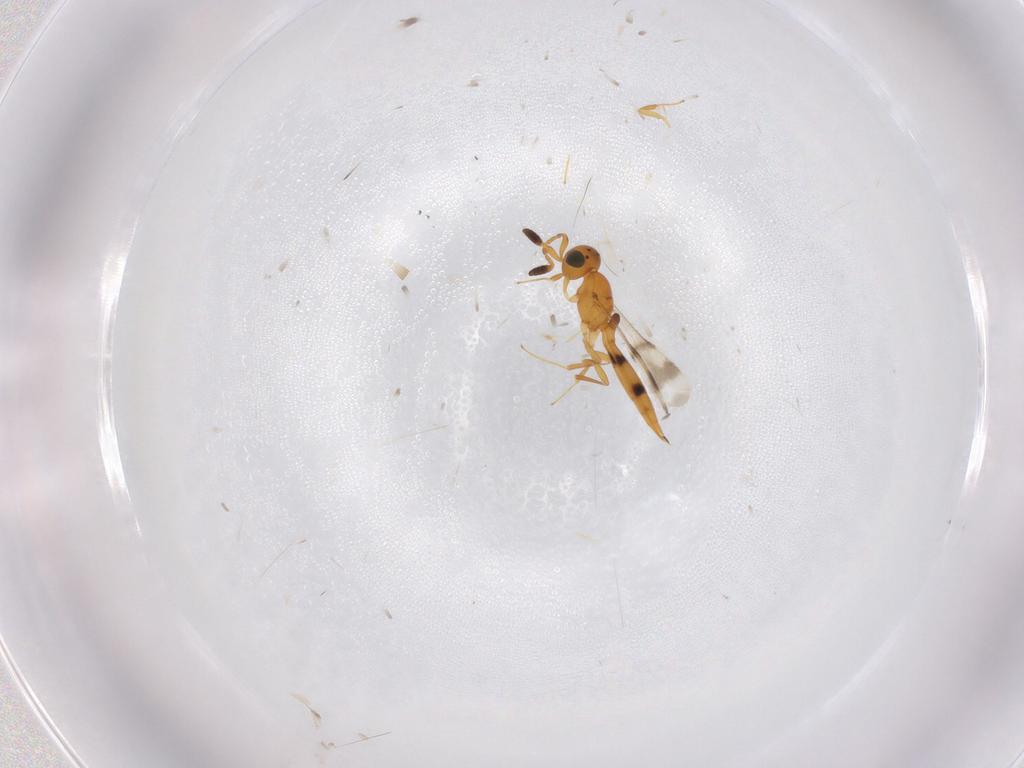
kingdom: Animalia
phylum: Arthropoda
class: Insecta
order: Hymenoptera
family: Scelionidae
